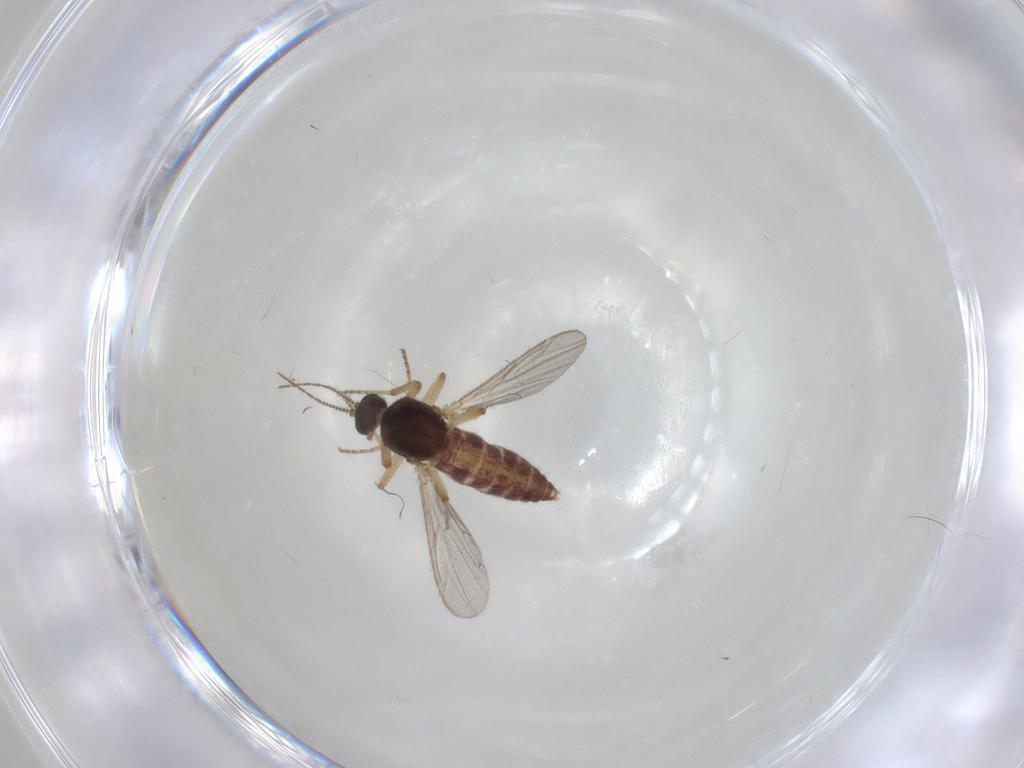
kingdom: Animalia
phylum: Arthropoda
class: Insecta
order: Diptera
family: Ceratopogonidae
